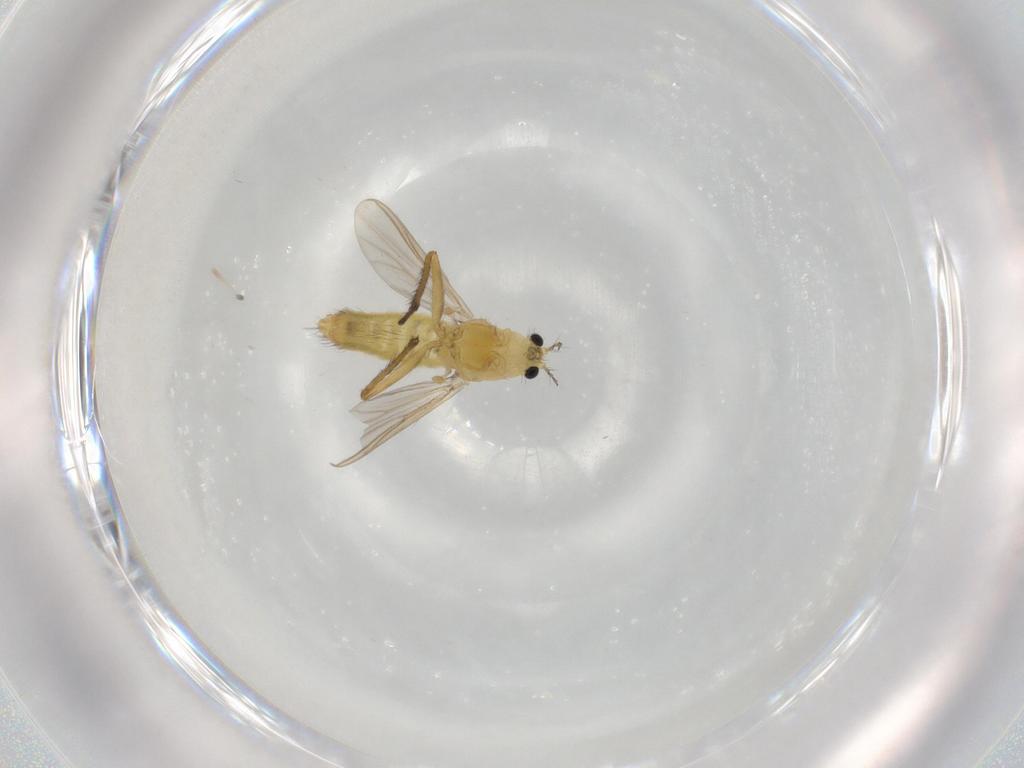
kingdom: Animalia
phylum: Arthropoda
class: Insecta
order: Diptera
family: Chironomidae
